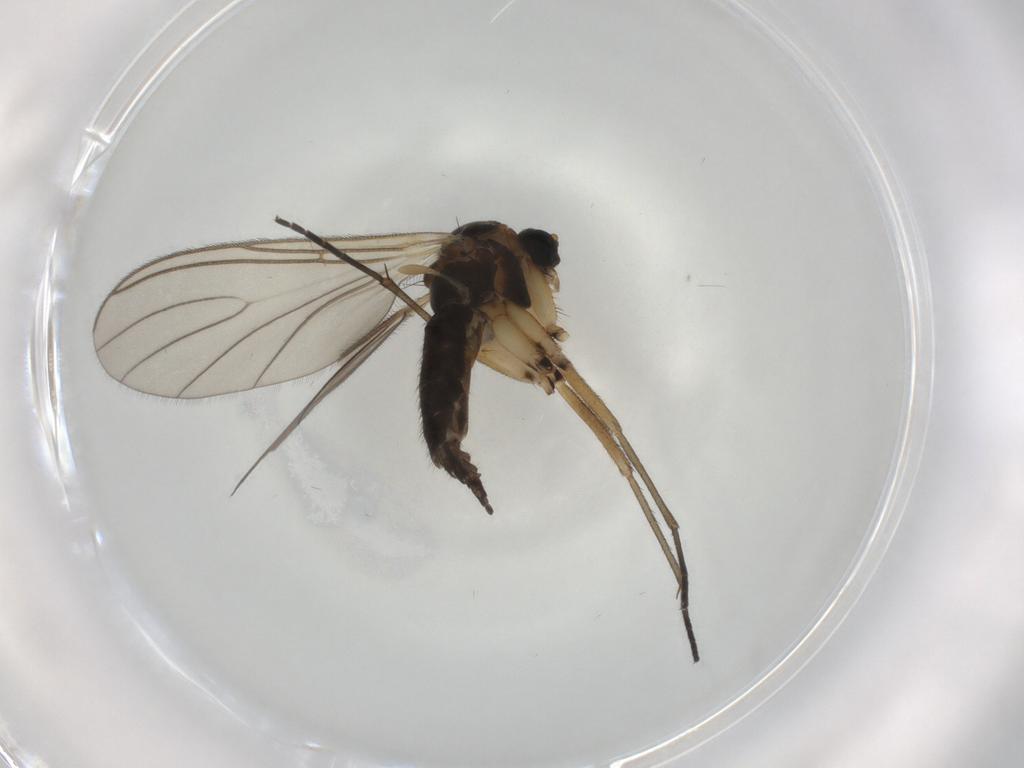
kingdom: Animalia
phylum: Arthropoda
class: Insecta
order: Diptera
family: Sciaridae
